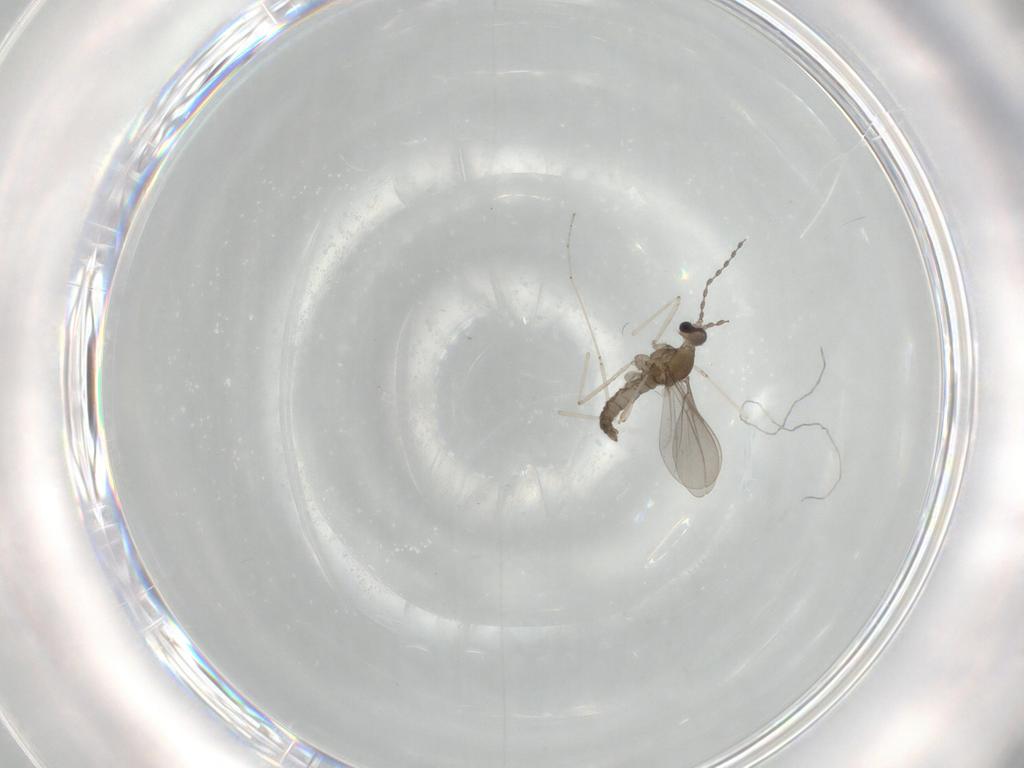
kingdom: Animalia
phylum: Arthropoda
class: Insecta
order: Diptera
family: Cecidomyiidae
